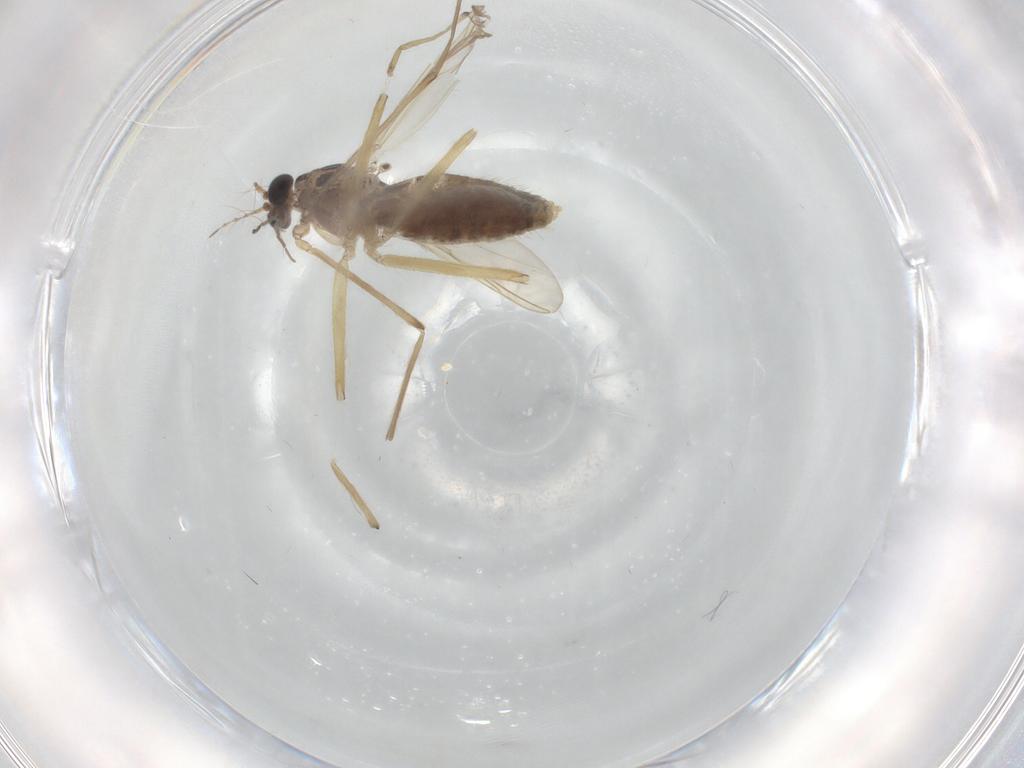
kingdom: Animalia
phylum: Arthropoda
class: Insecta
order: Diptera
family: Chironomidae
